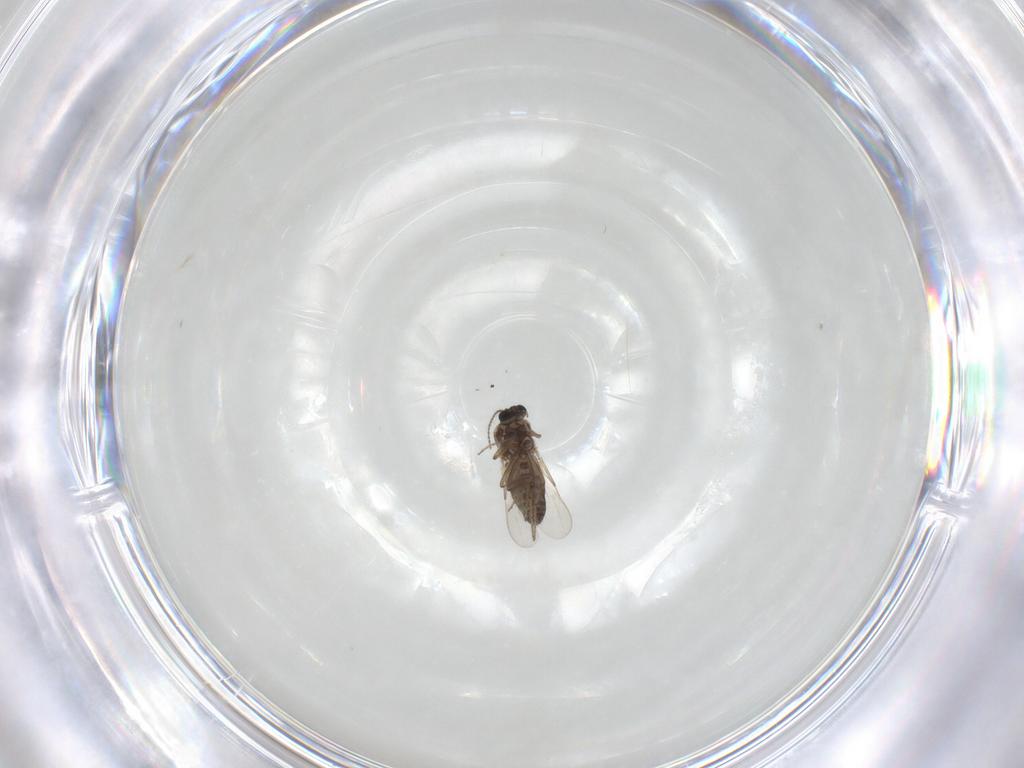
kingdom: Animalia
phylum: Arthropoda
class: Insecta
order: Diptera
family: Ceratopogonidae
